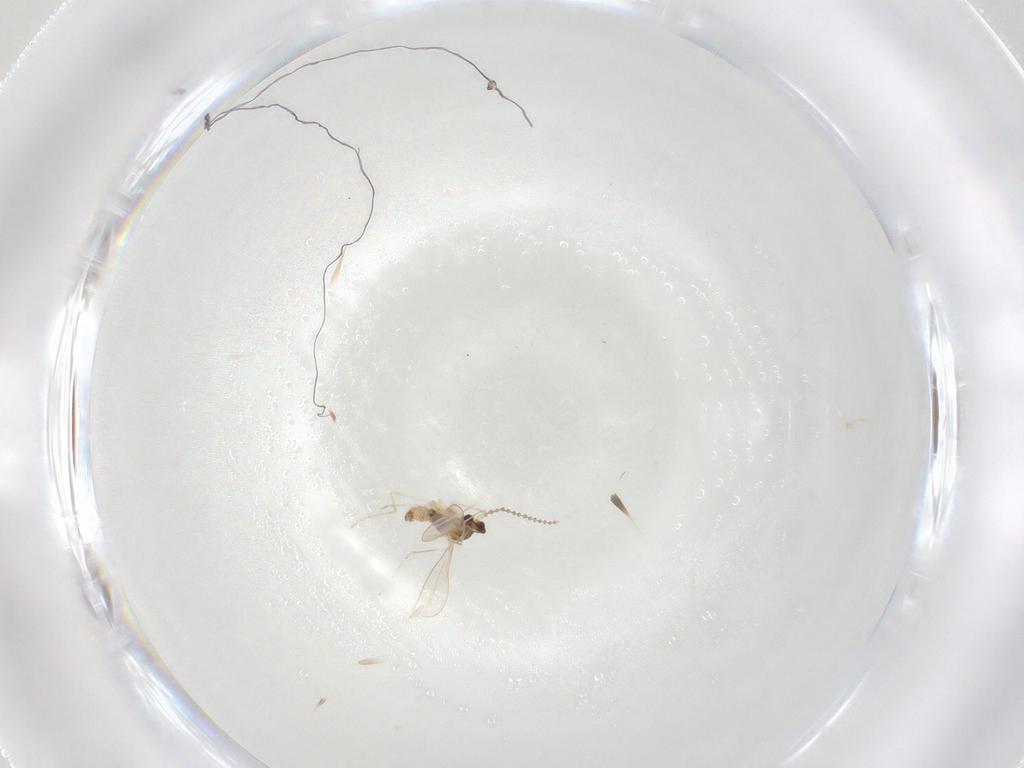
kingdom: Animalia
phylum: Arthropoda
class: Insecta
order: Diptera
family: Cecidomyiidae
